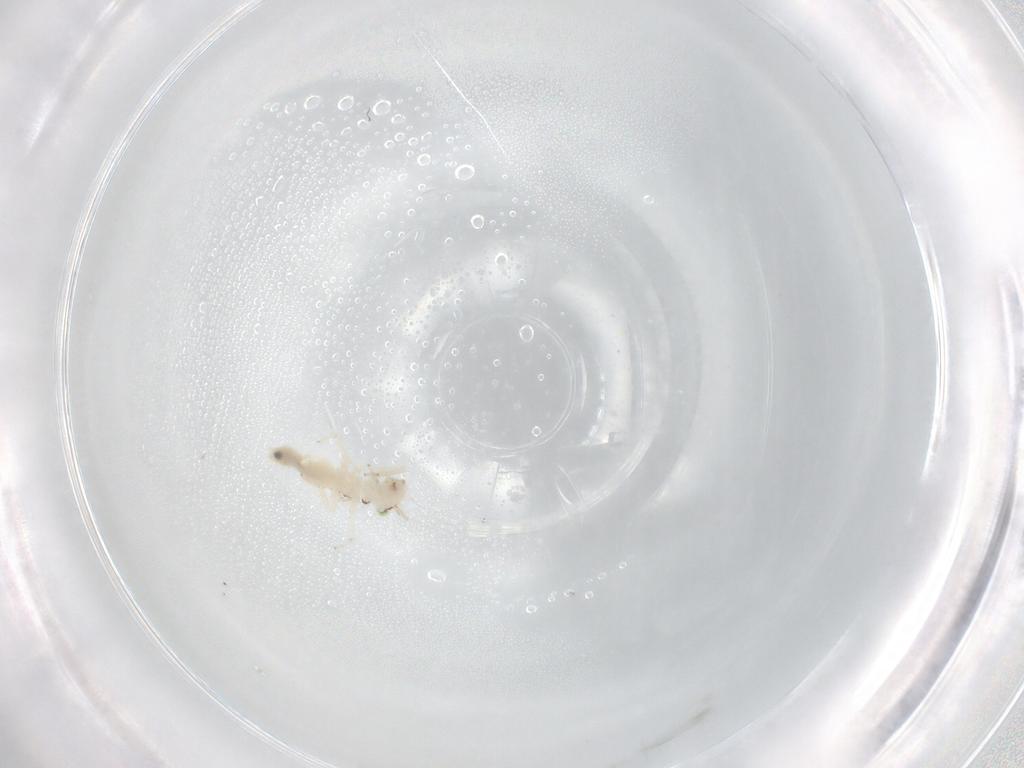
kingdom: Animalia
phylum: Arthropoda
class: Insecta
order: Psocodea
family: Lepidopsocidae
